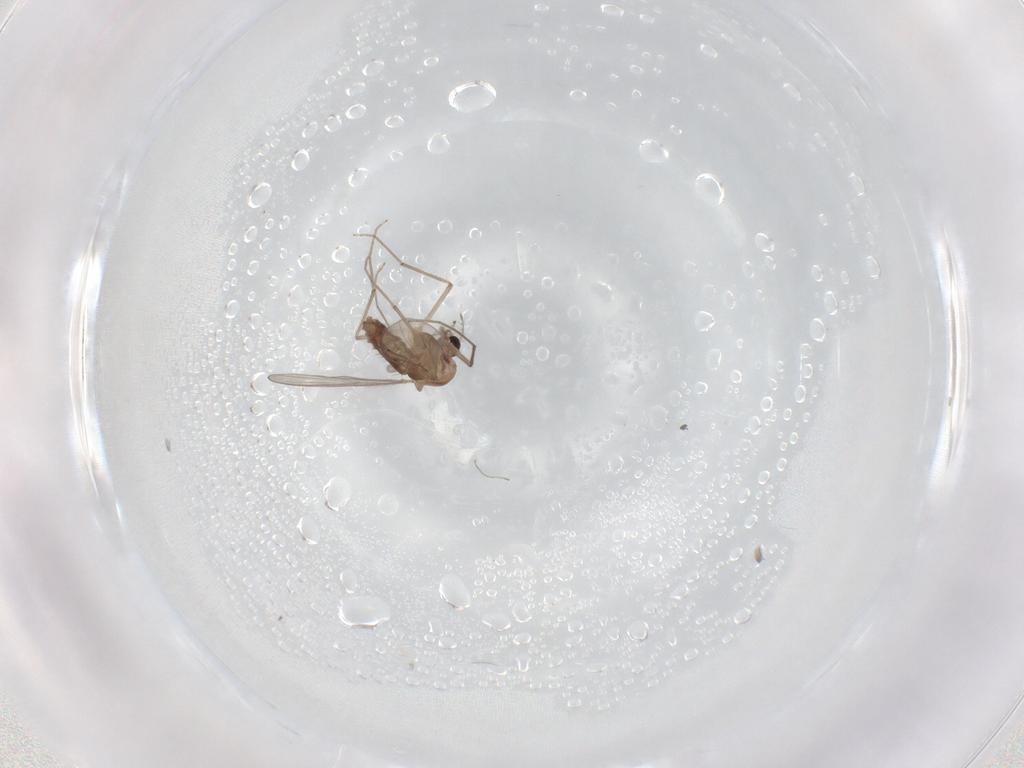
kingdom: Animalia
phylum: Arthropoda
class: Insecta
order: Diptera
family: Chironomidae
